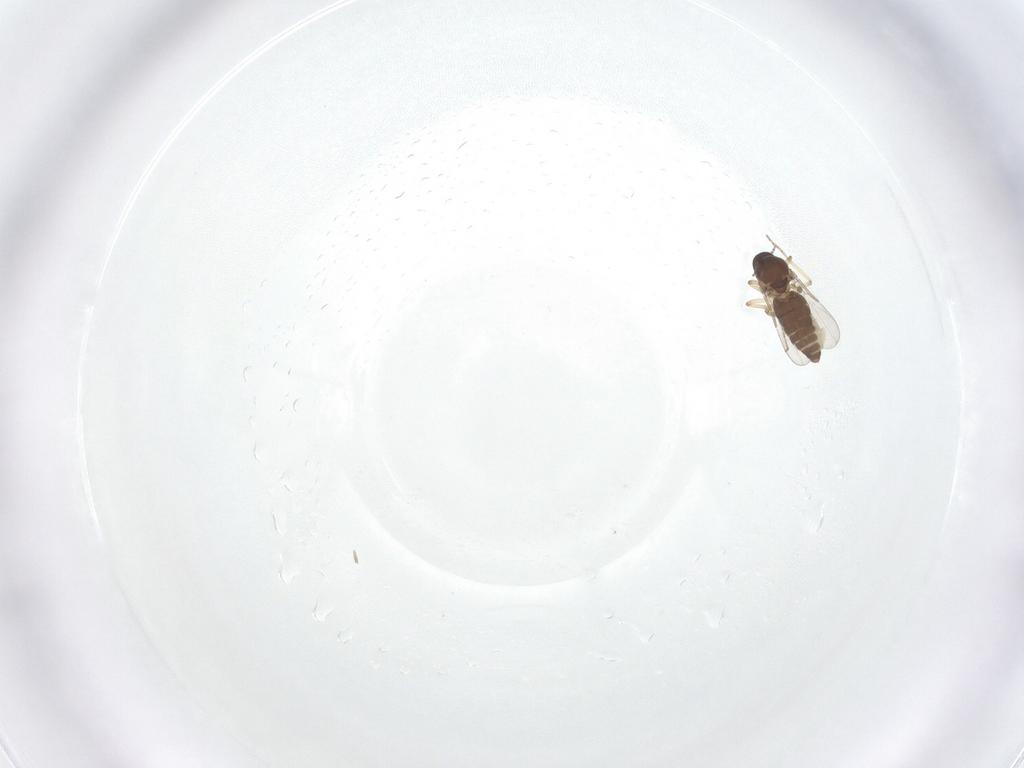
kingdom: Animalia
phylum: Arthropoda
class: Insecta
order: Diptera
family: Ceratopogonidae
